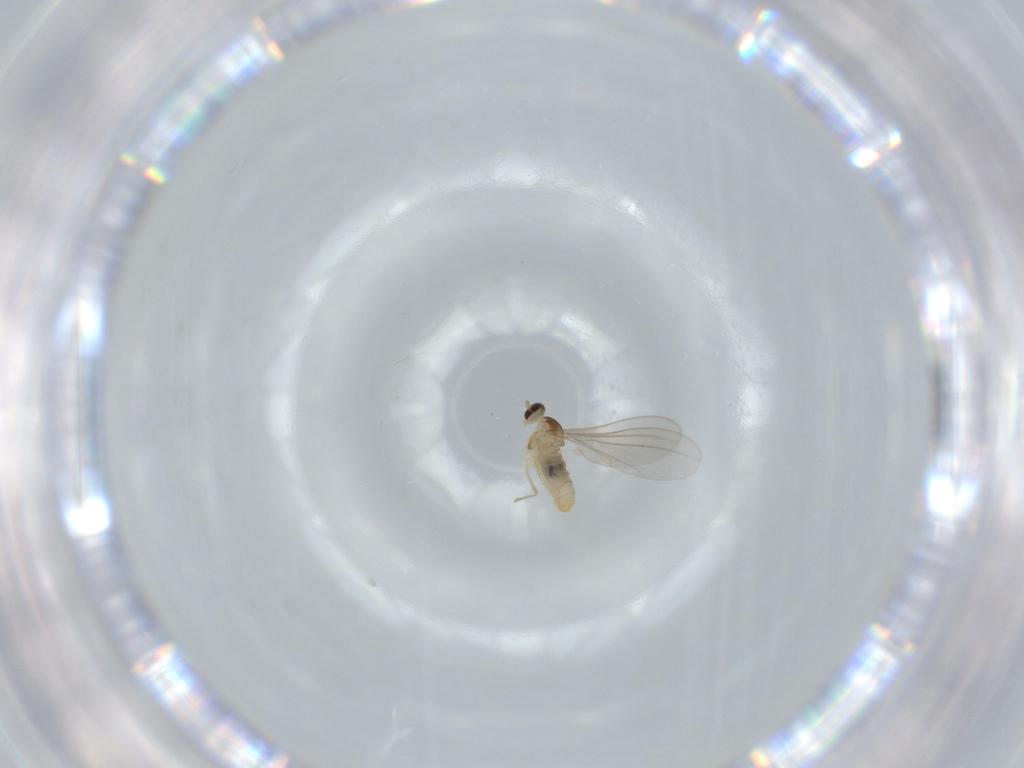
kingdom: Animalia
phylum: Arthropoda
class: Insecta
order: Diptera
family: Cecidomyiidae
